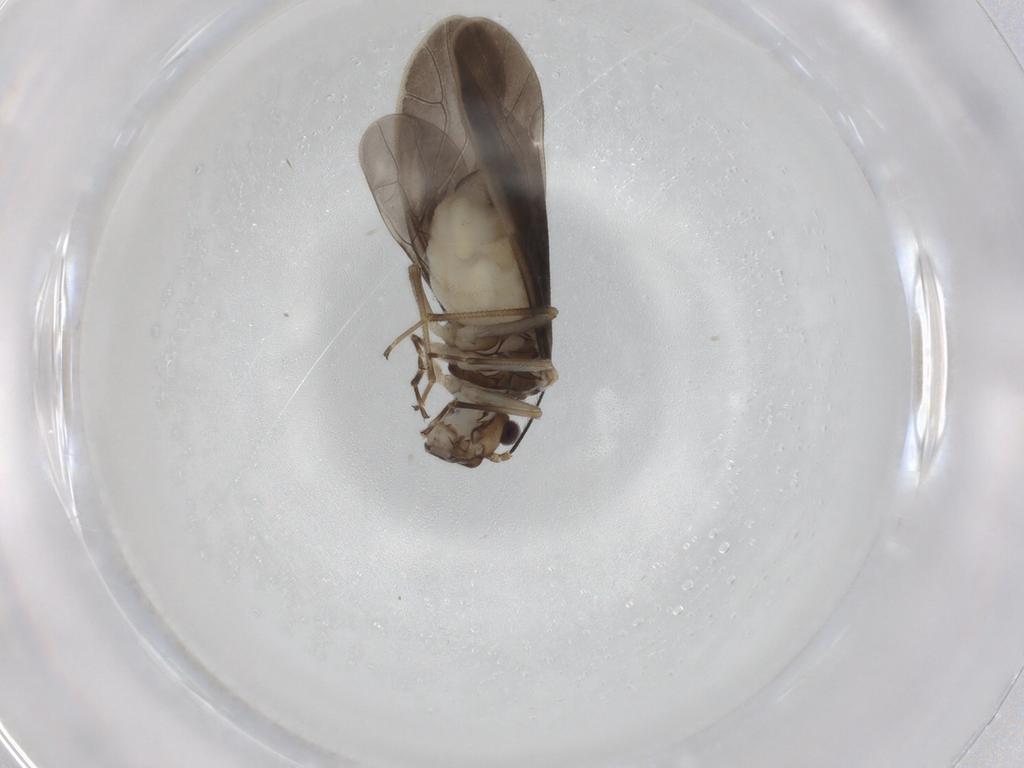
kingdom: Animalia
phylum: Arthropoda
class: Insecta
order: Psocodea
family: Caeciliusidae
